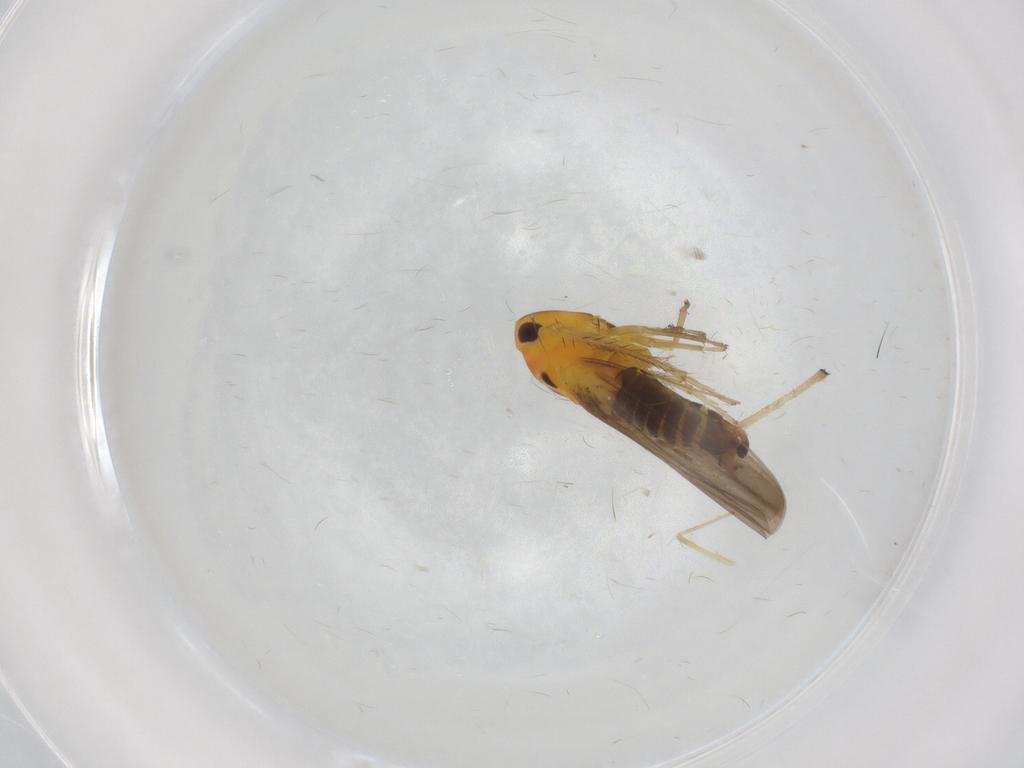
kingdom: Animalia
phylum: Arthropoda
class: Insecta
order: Hemiptera
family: Cicadellidae
